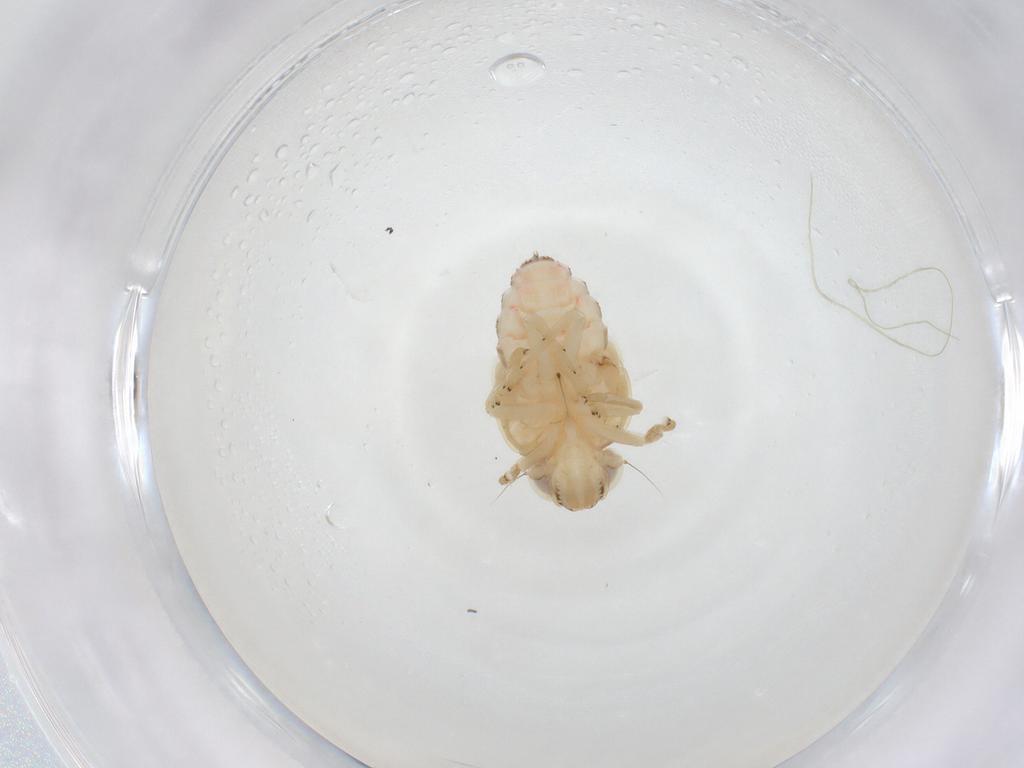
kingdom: Animalia
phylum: Arthropoda
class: Insecta
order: Hemiptera
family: Nogodinidae
